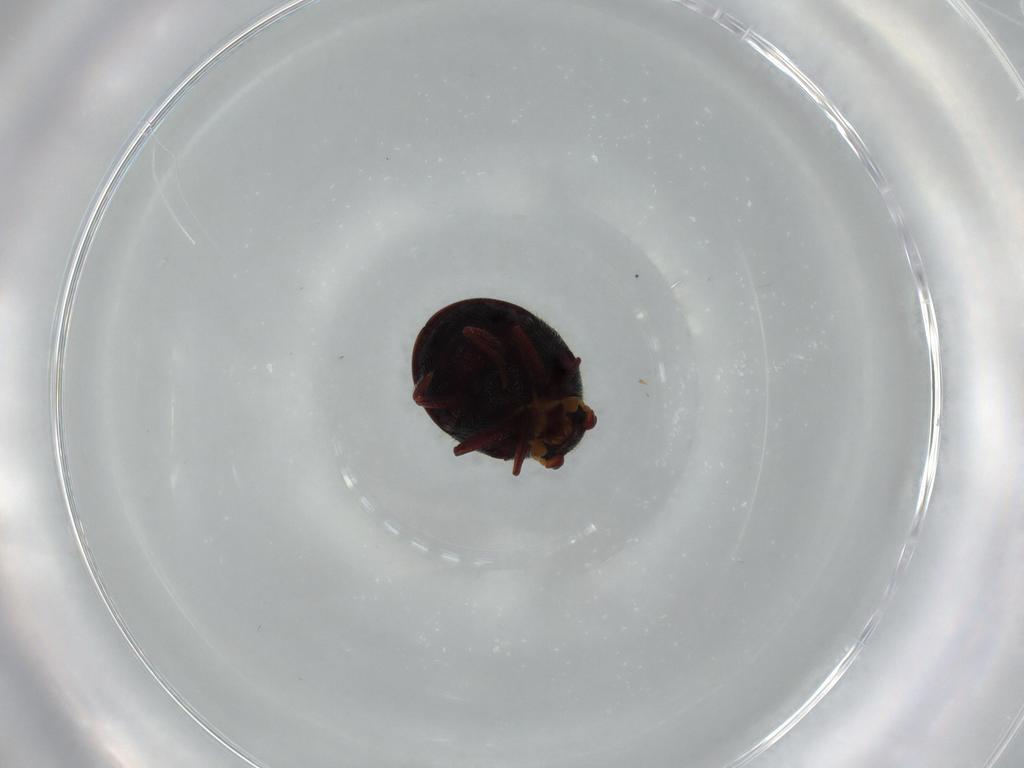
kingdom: Animalia
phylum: Arthropoda
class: Insecta
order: Coleoptera
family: Ptinidae
